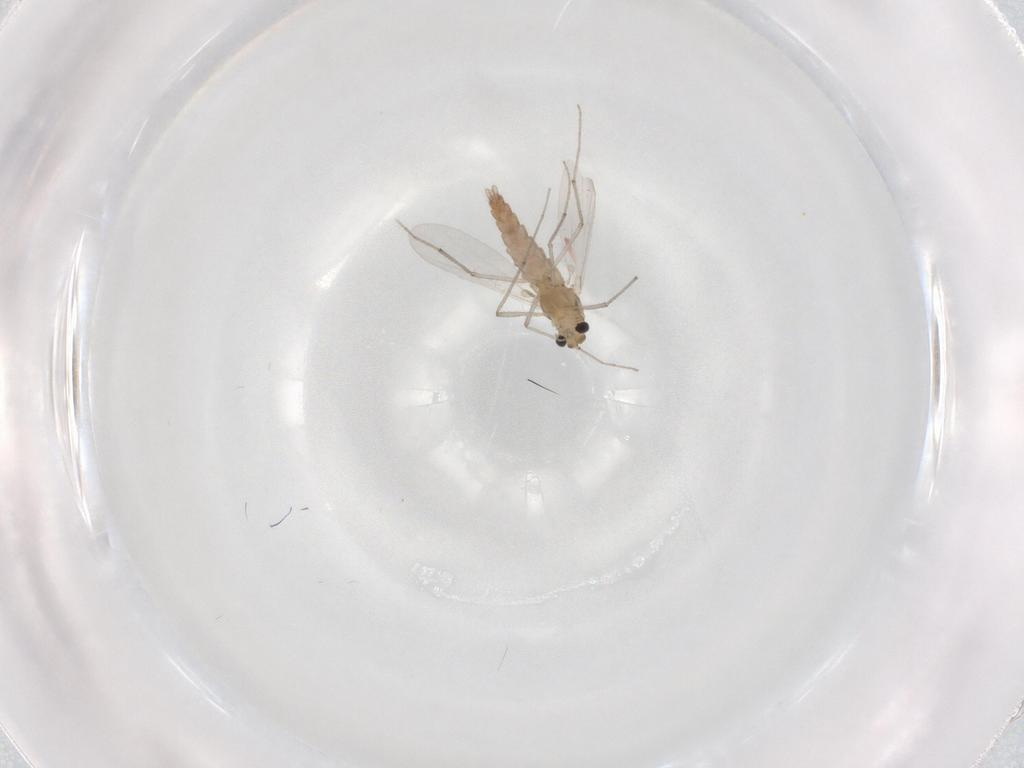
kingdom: Animalia
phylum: Arthropoda
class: Insecta
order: Diptera
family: Chironomidae
